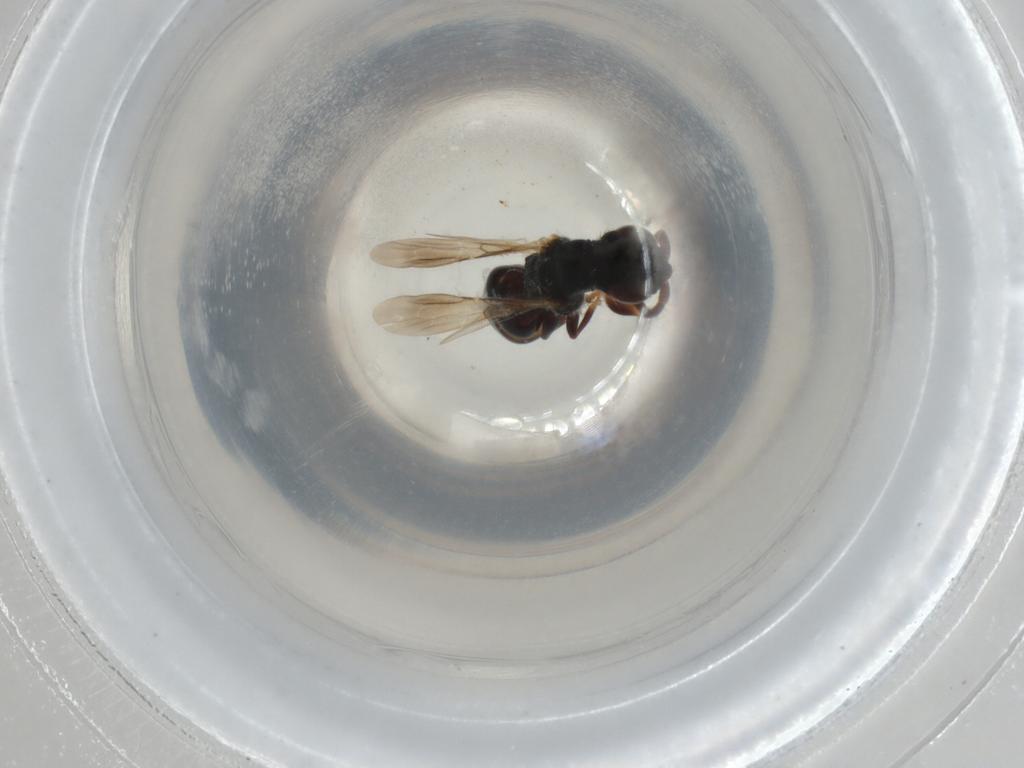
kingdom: Animalia
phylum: Arthropoda
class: Insecta
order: Hymenoptera
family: Bethylidae
